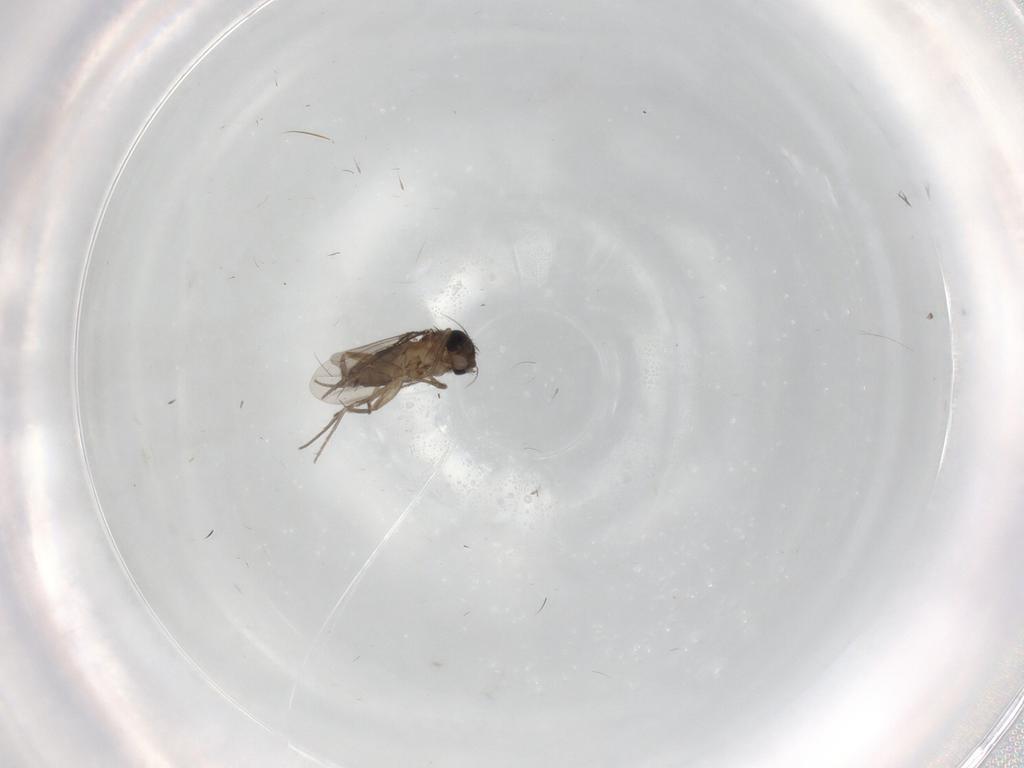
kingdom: Animalia
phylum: Arthropoda
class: Insecta
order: Diptera
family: Phoridae
